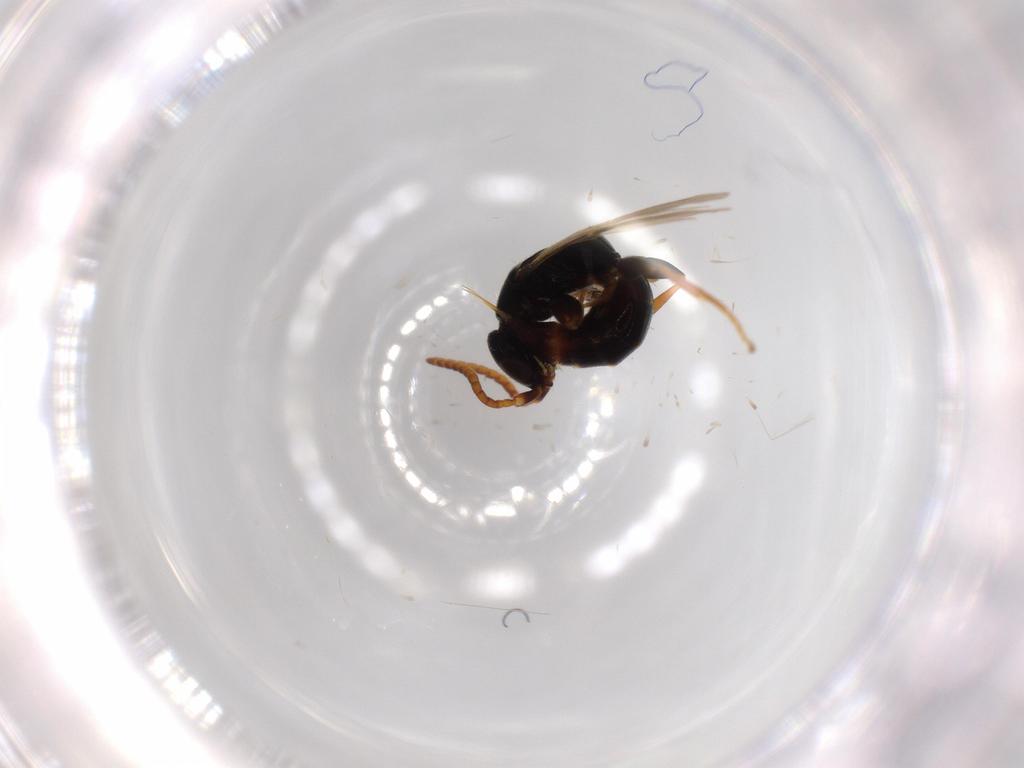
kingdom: Animalia
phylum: Arthropoda
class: Insecta
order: Hymenoptera
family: Bethylidae
